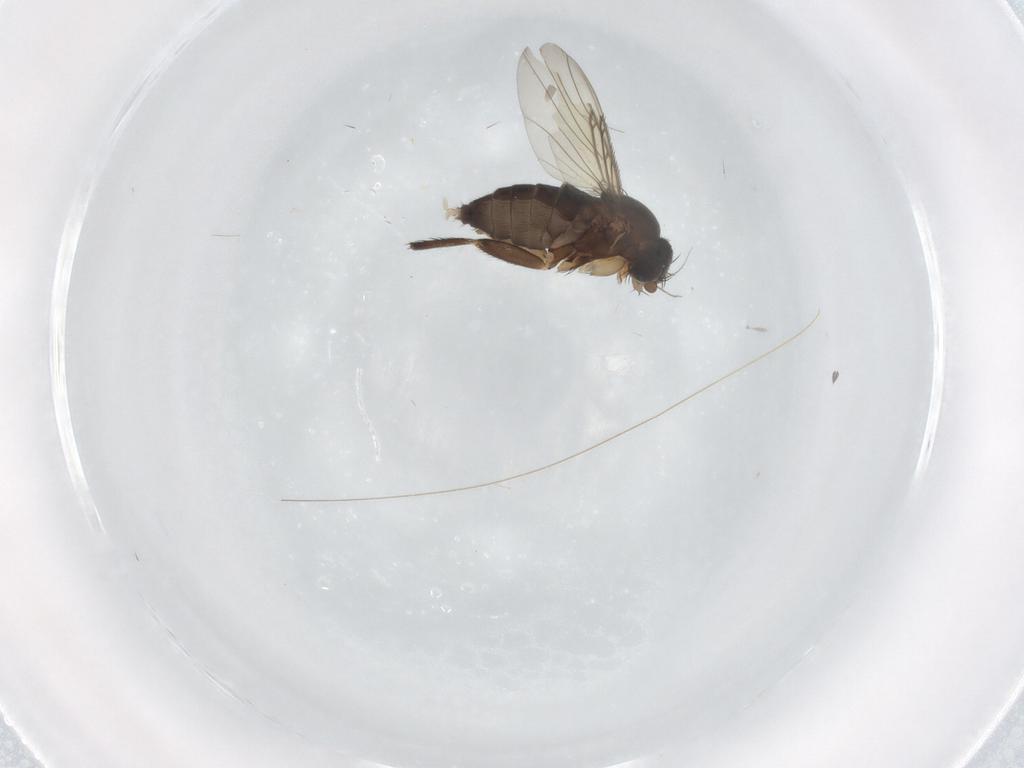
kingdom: Animalia
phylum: Arthropoda
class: Insecta
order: Diptera
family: Phoridae
